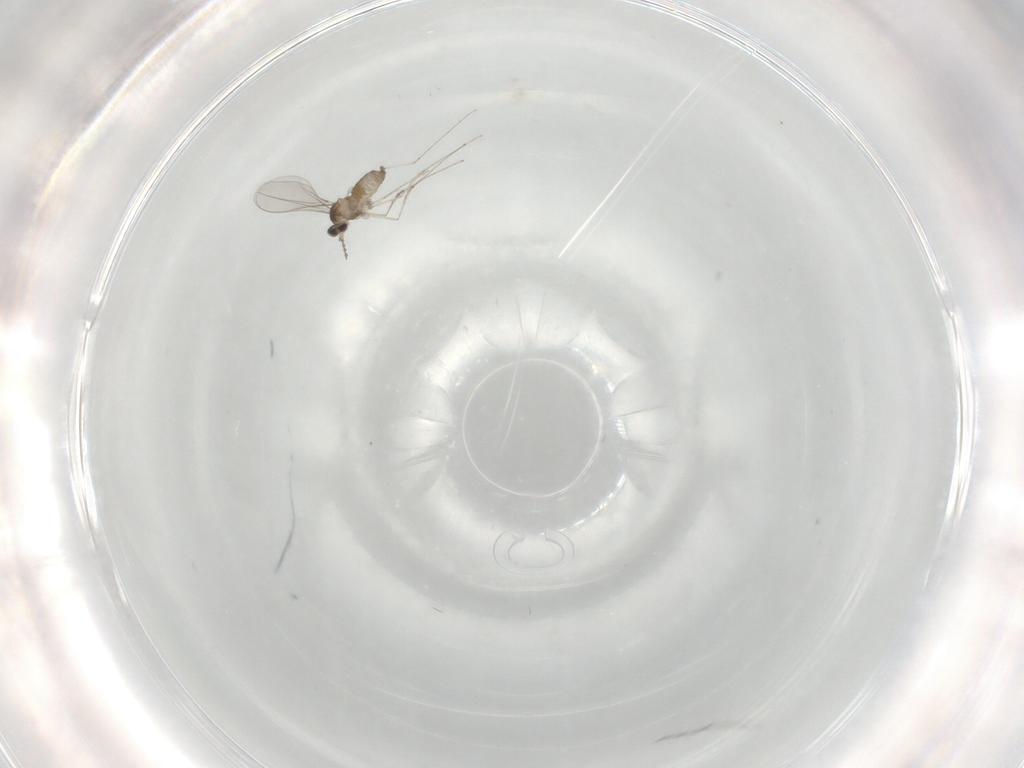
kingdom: Animalia
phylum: Arthropoda
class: Insecta
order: Diptera
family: Cecidomyiidae
